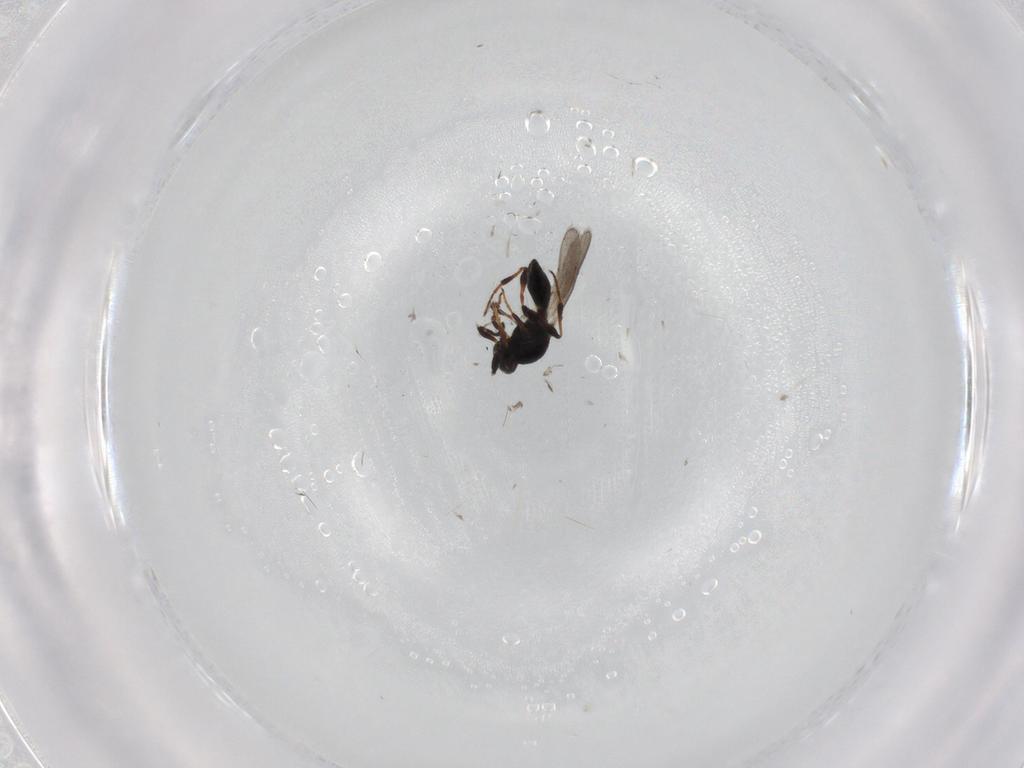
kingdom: Animalia
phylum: Arthropoda
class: Insecta
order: Hymenoptera
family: Platygastridae
